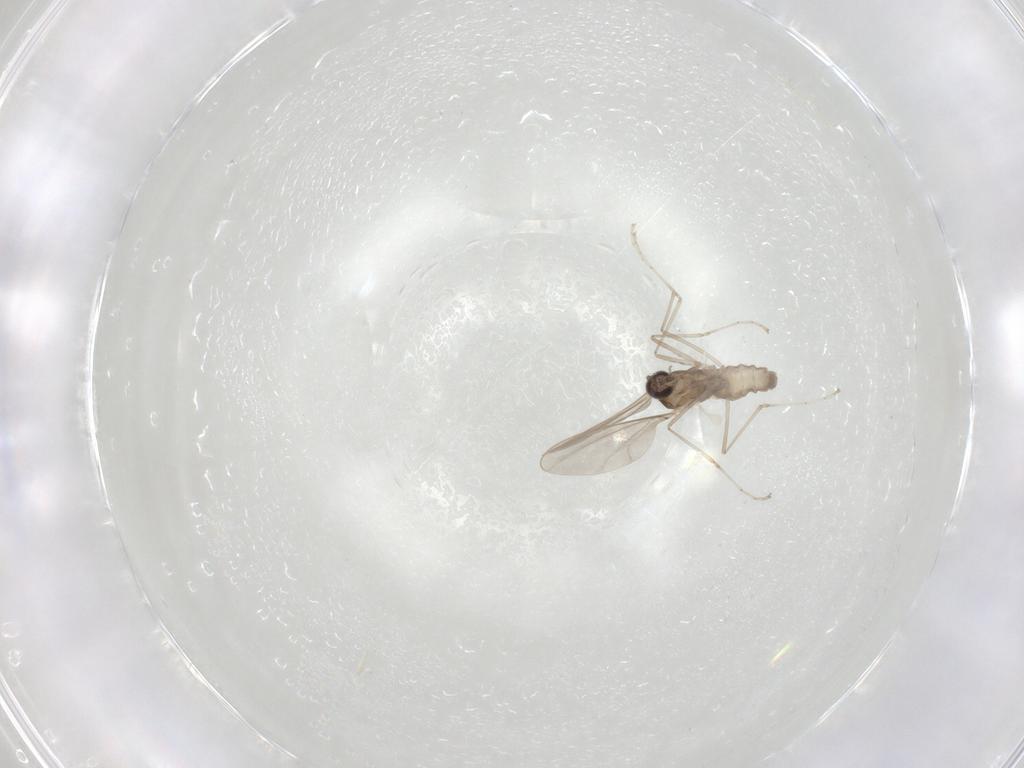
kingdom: Animalia
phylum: Arthropoda
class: Insecta
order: Diptera
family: Cecidomyiidae
